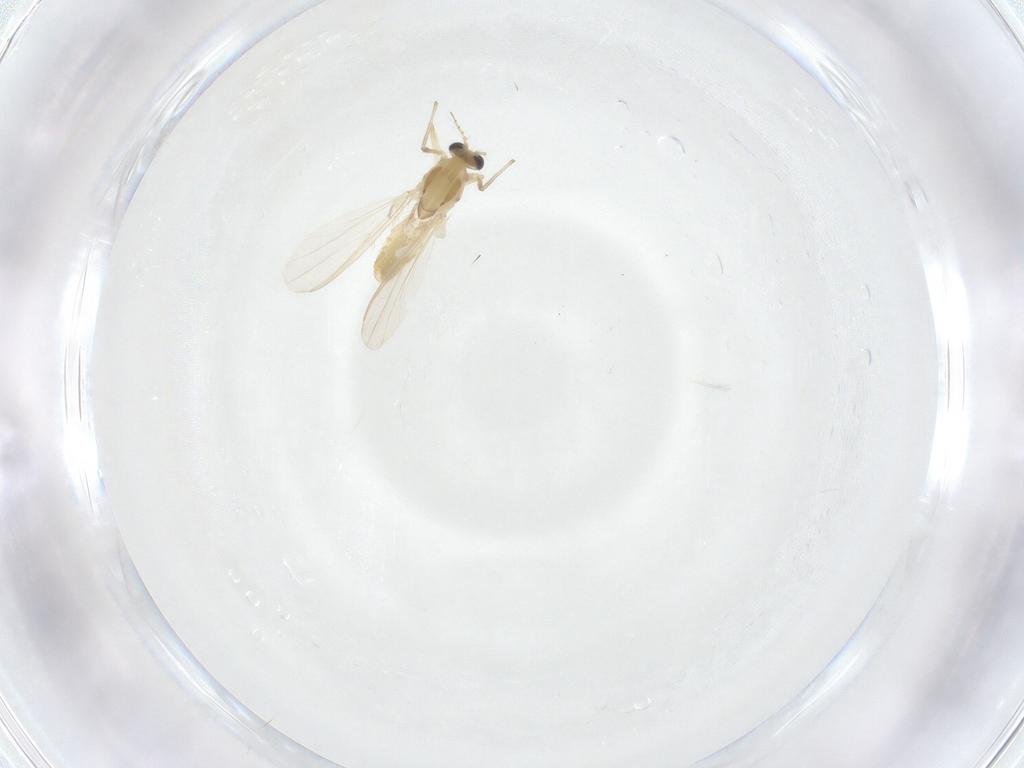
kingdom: Animalia
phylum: Arthropoda
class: Insecta
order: Diptera
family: Chironomidae
